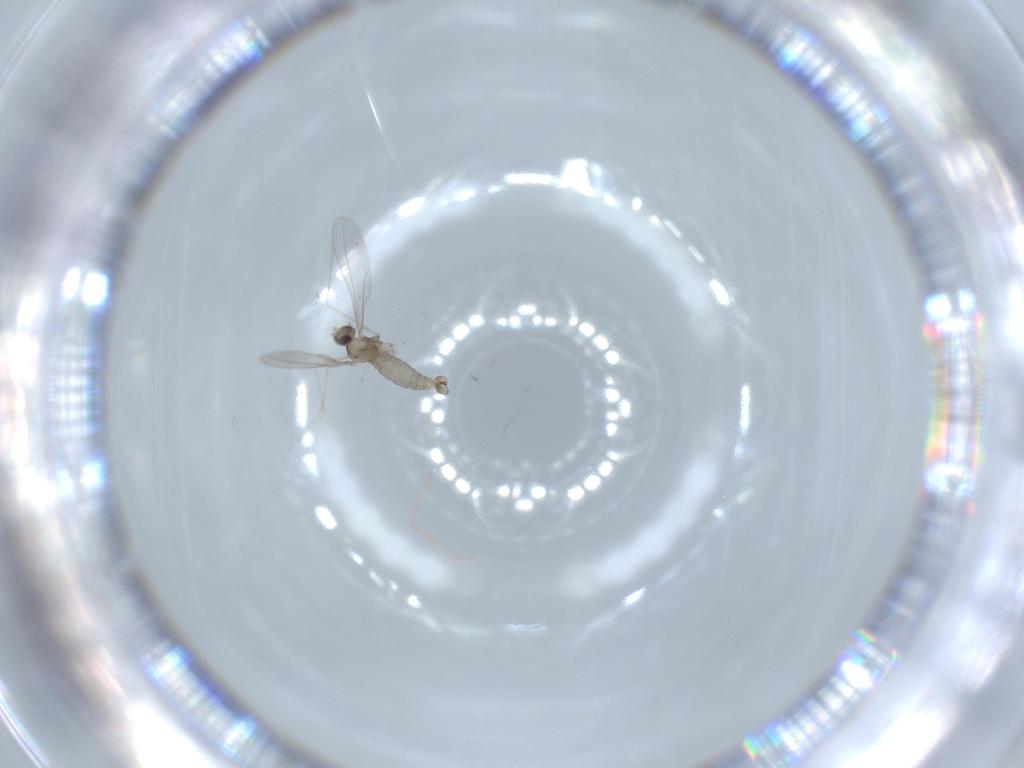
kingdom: Animalia
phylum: Arthropoda
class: Insecta
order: Diptera
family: Cecidomyiidae
